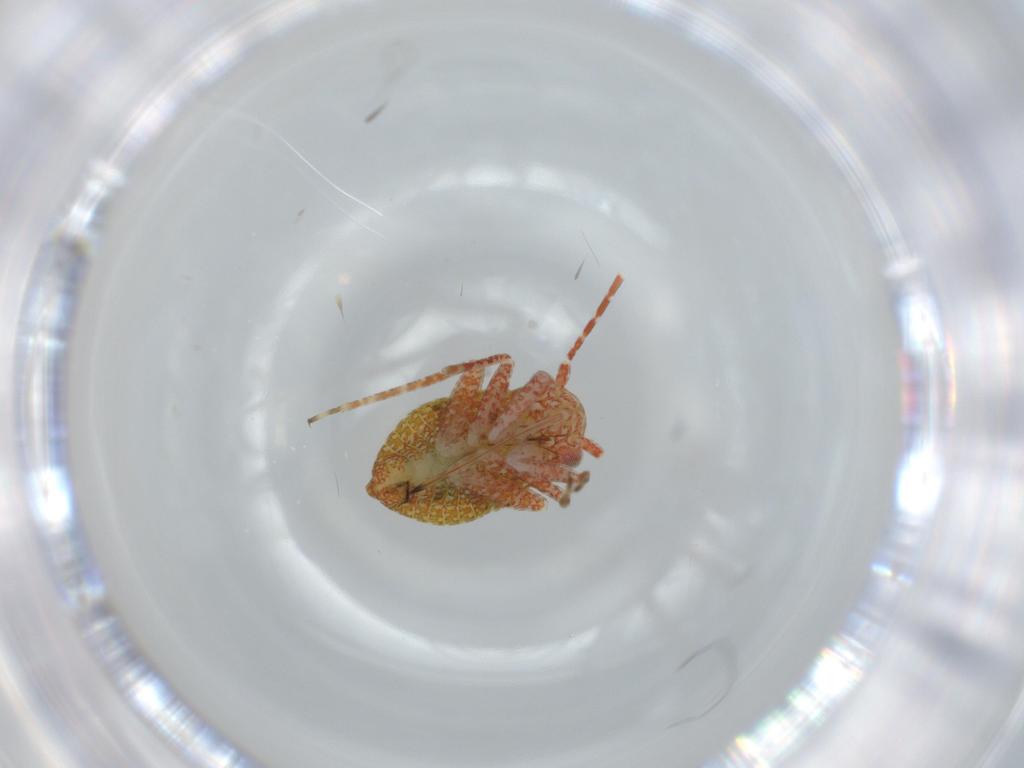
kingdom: Animalia
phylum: Arthropoda
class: Insecta
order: Hemiptera
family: Miridae
